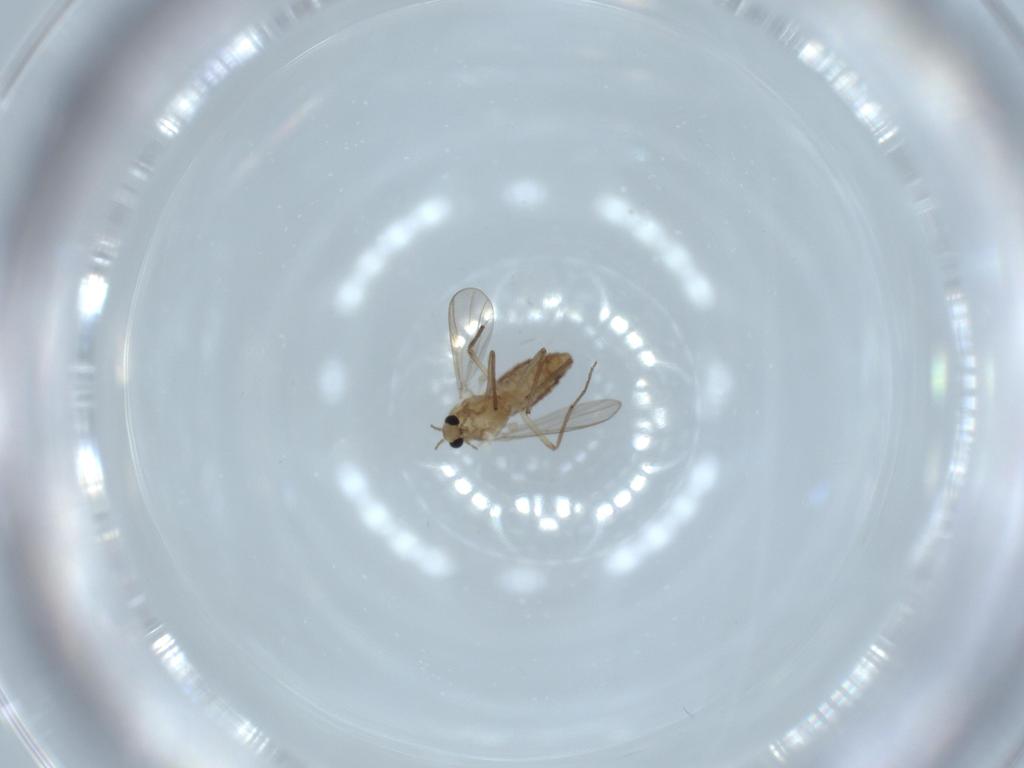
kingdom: Animalia
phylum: Arthropoda
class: Insecta
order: Diptera
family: Chironomidae
